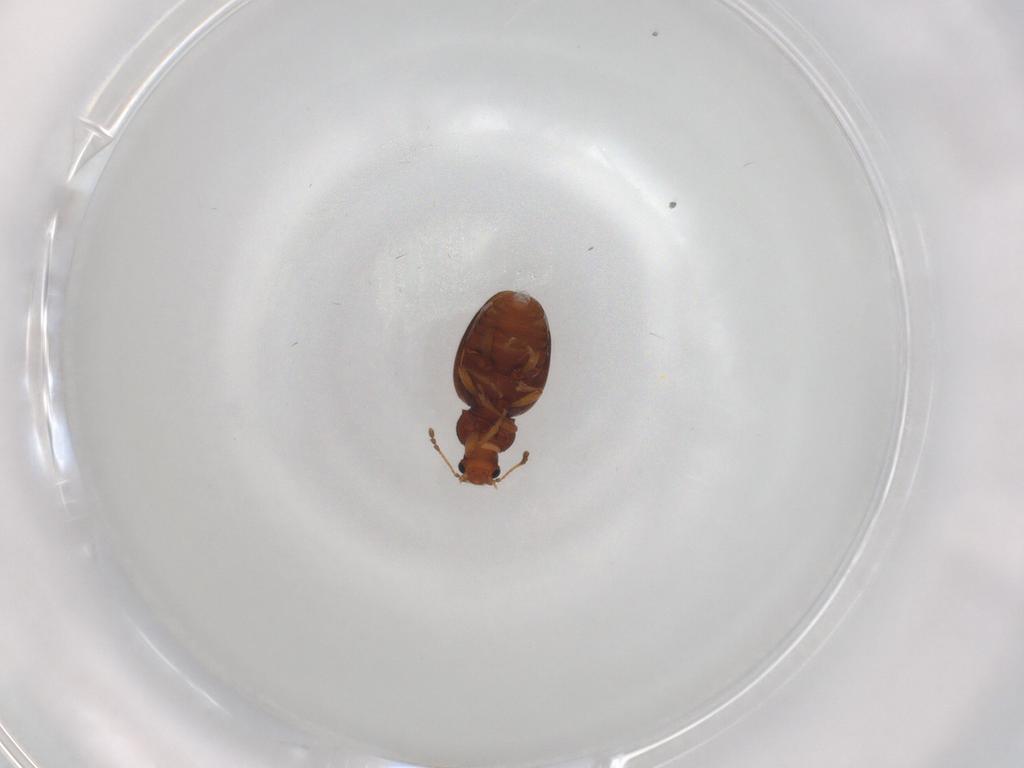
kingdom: Animalia
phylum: Arthropoda
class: Insecta
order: Coleoptera
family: Latridiidae
